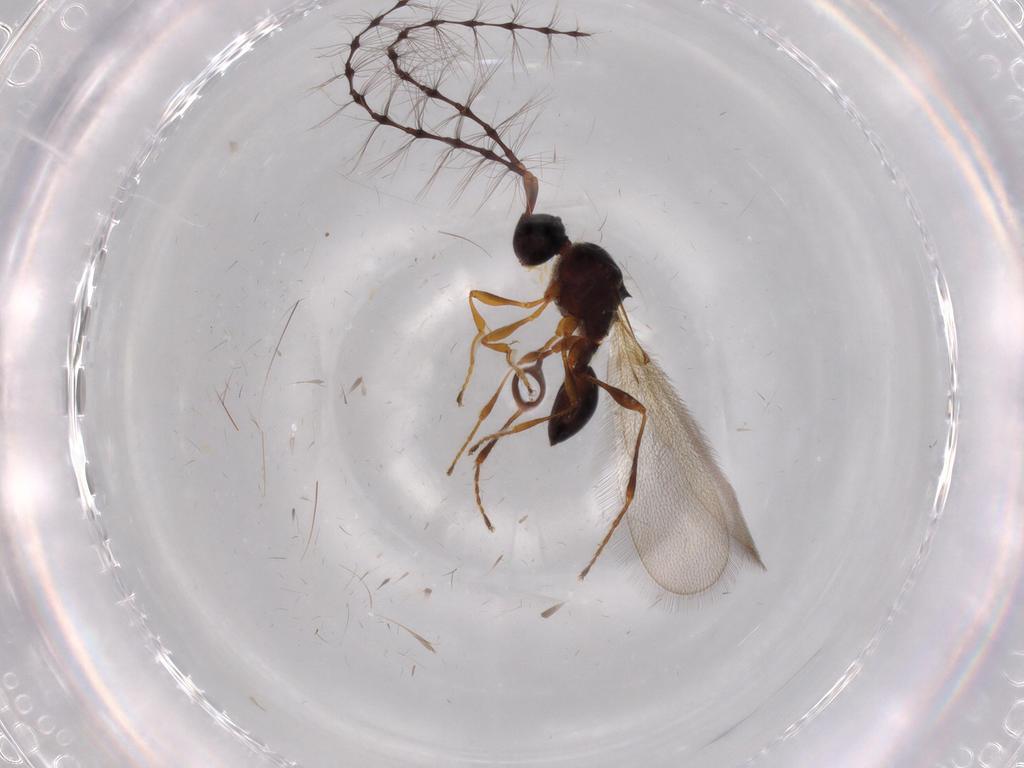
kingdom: Animalia
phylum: Arthropoda
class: Insecta
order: Hymenoptera
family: Diapriidae
